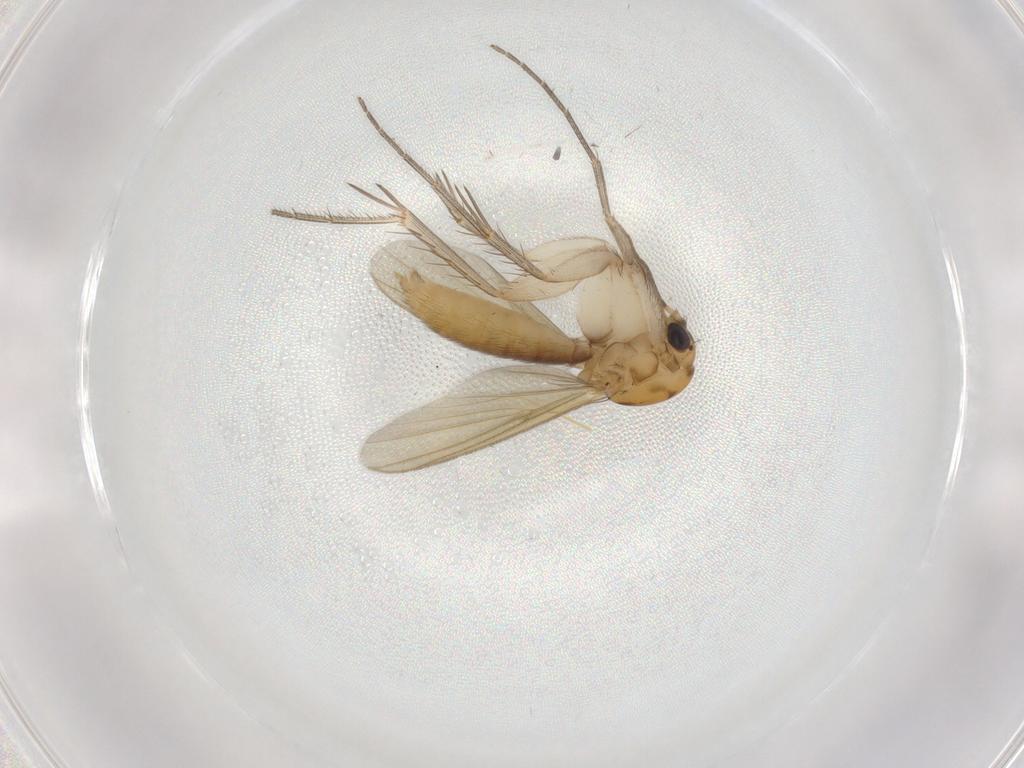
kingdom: Animalia
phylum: Arthropoda
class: Insecta
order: Diptera
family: Mycetophilidae
